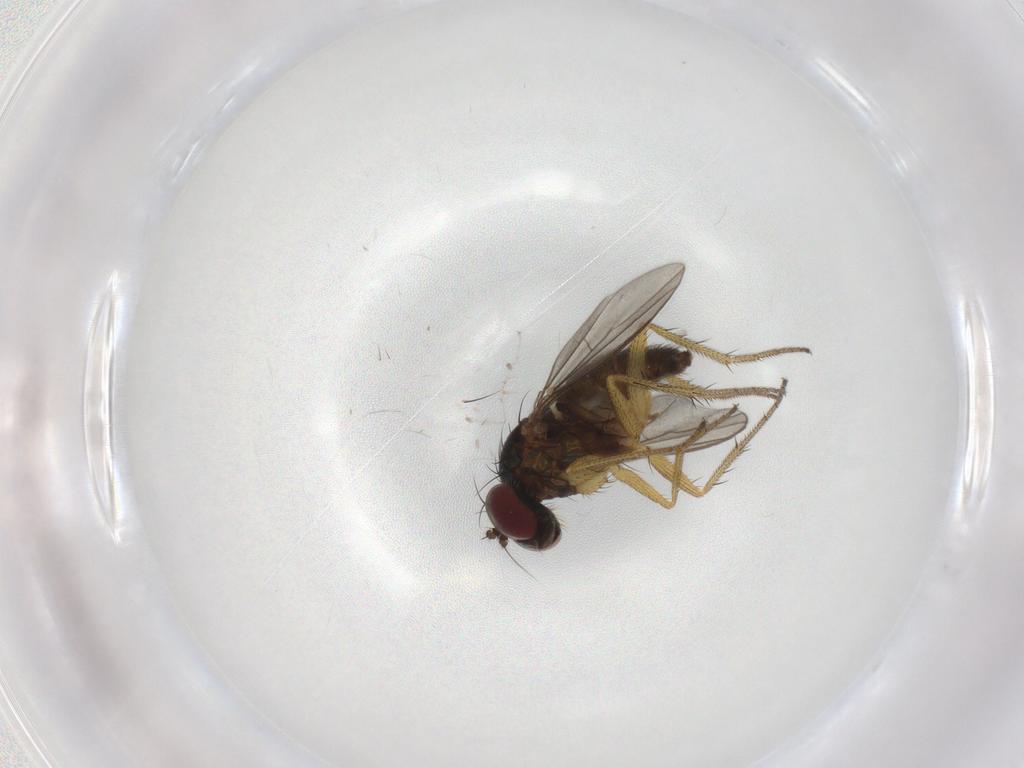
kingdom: Animalia
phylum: Arthropoda
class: Insecta
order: Diptera
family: Dolichopodidae
